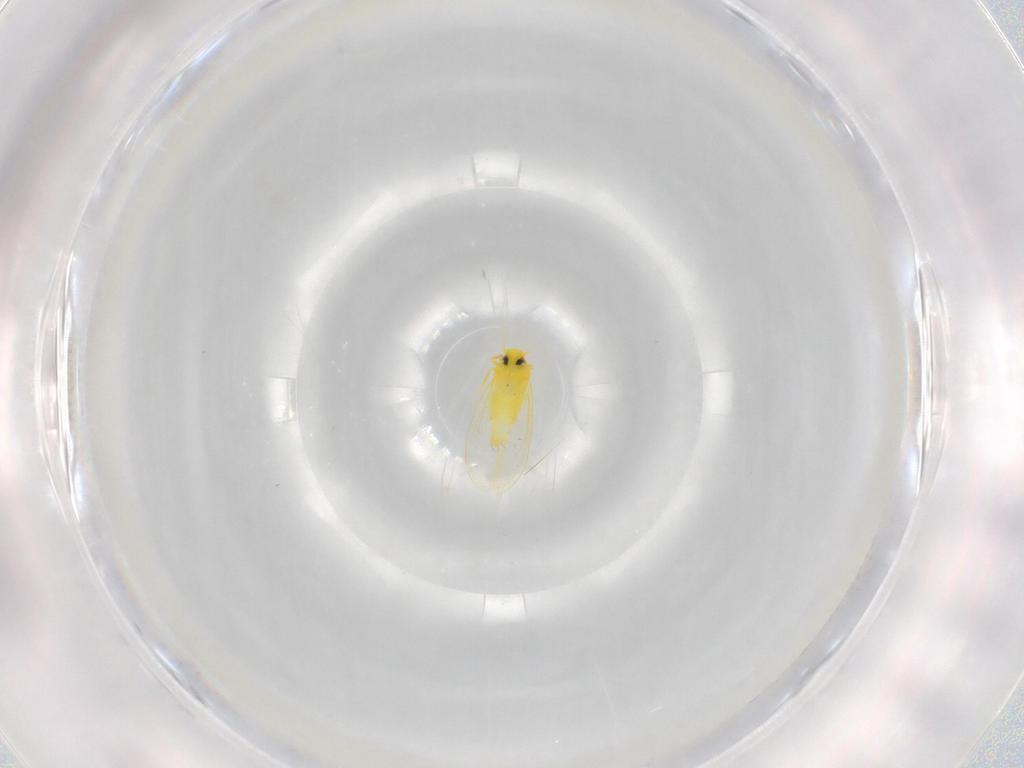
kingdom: Animalia
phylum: Arthropoda
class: Insecta
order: Hemiptera
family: Aleyrodidae
